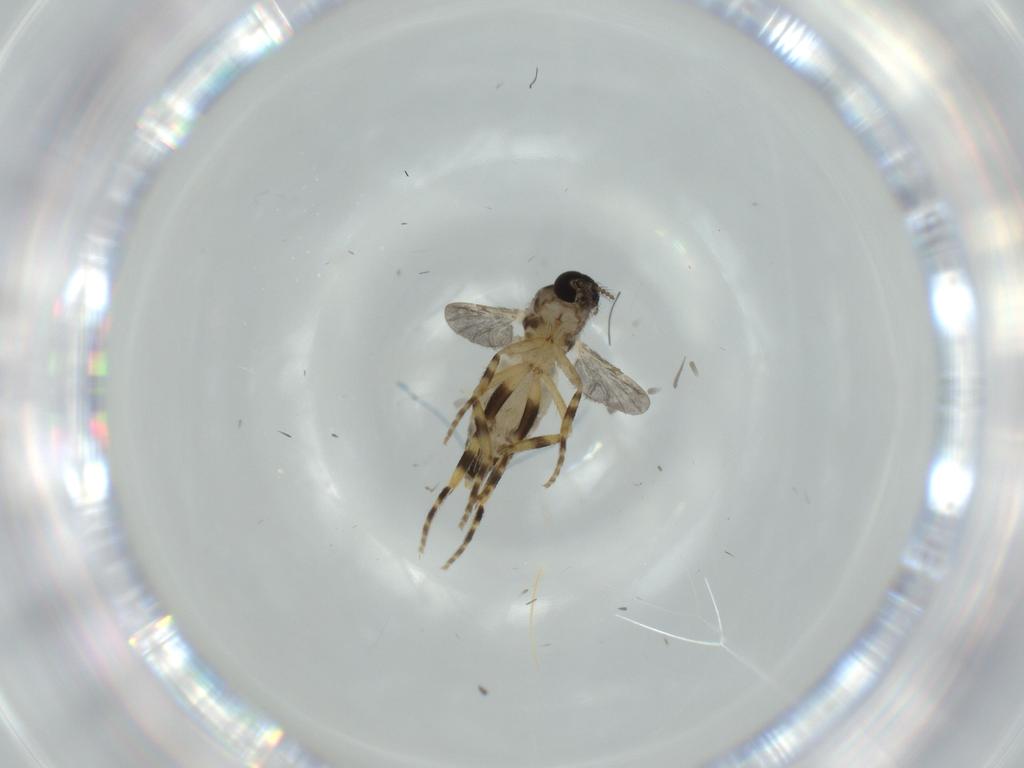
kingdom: Animalia
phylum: Arthropoda
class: Insecta
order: Diptera
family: Ceratopogonidae
